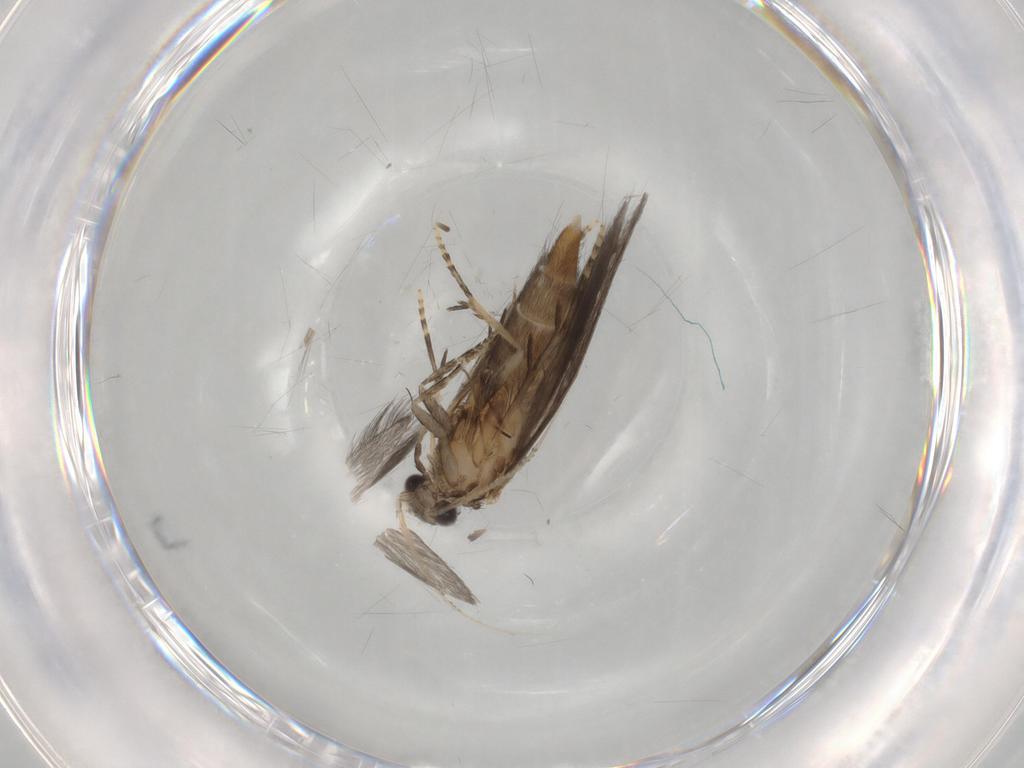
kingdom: Animalia
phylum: Arthropoda
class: Insecta
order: Trichoptera
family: Hydroptilidae
